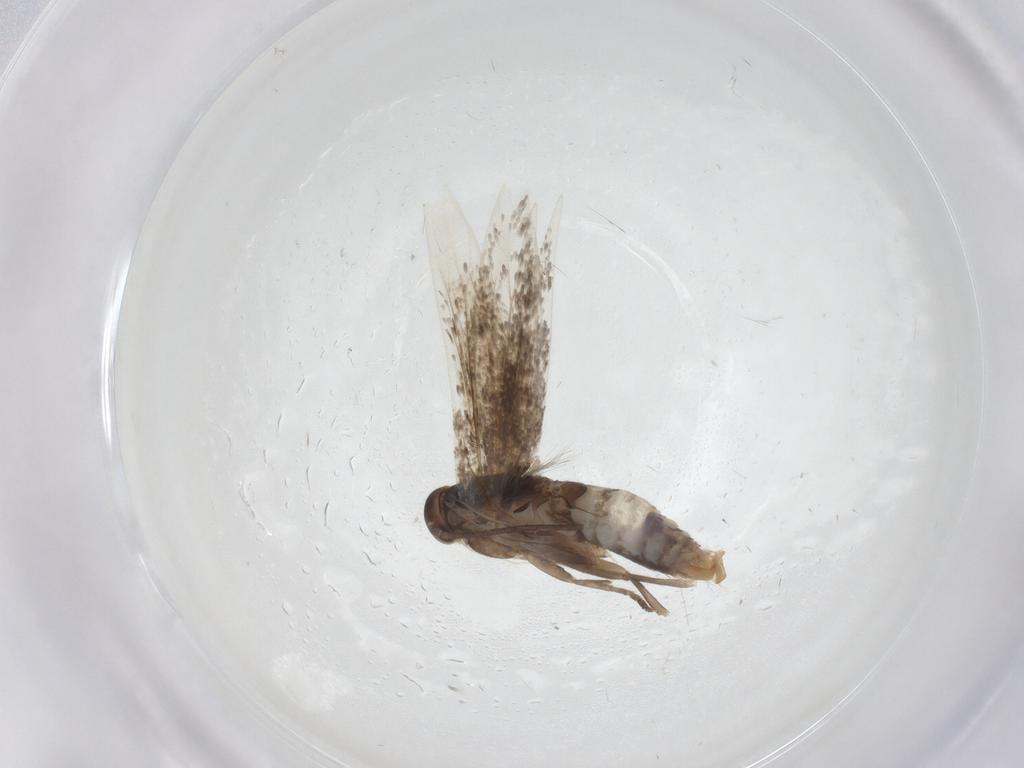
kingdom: Animalia
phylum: Arthropoda
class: Insecta
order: Lepidoptera
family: Elachistidae
